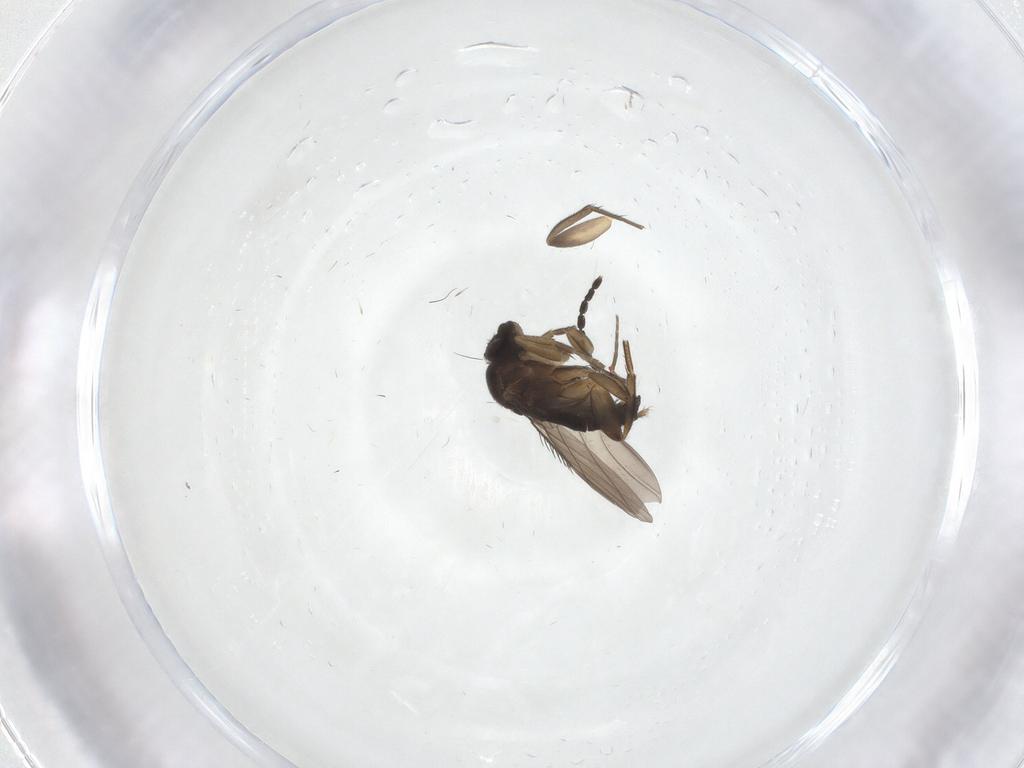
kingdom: Animalia
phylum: Arthropoda
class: Insecta
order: Diptera
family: Phoridae
